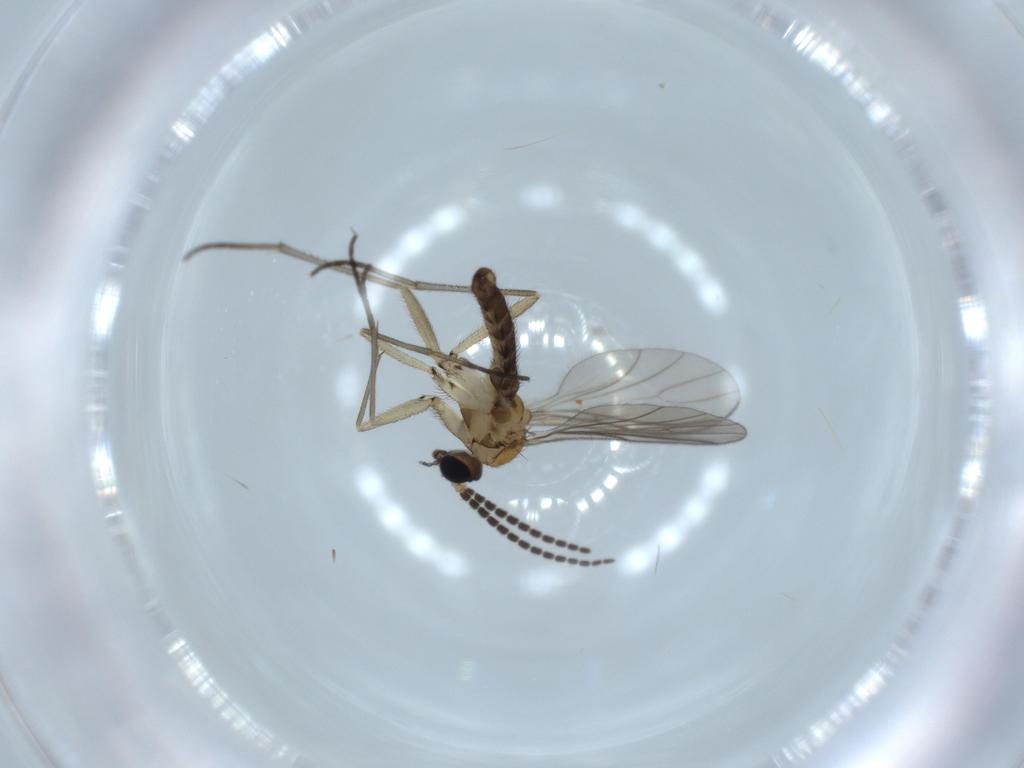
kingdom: Animalia
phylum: Arthropoda
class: Insecta
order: Diptera
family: Sciaridae
